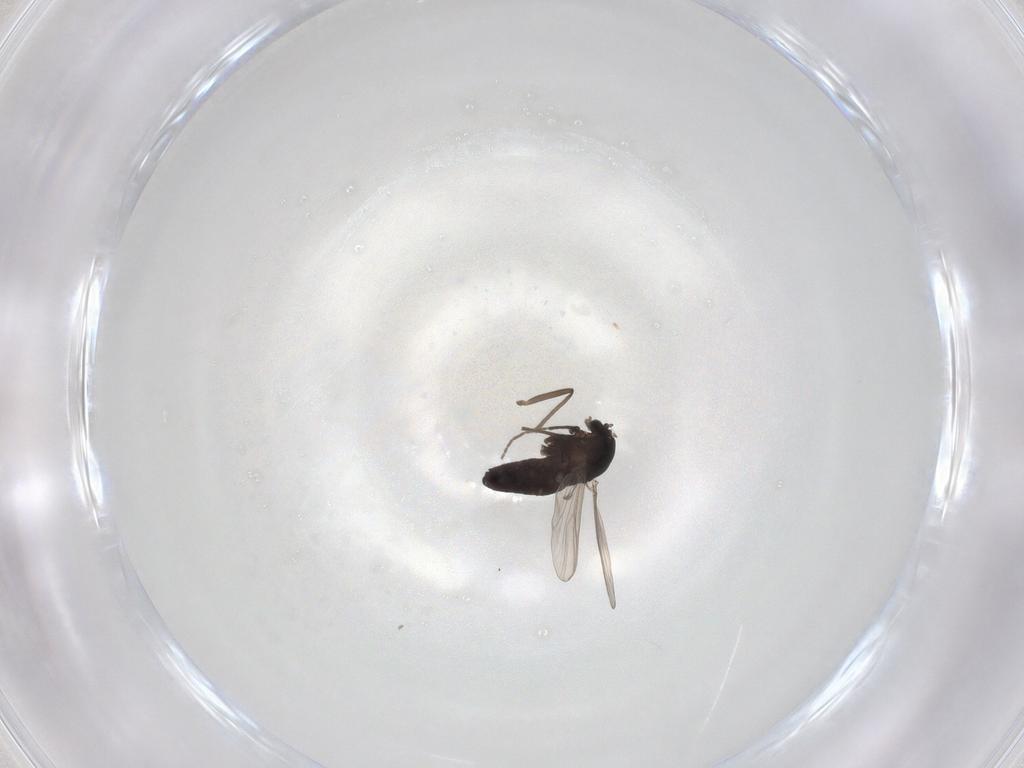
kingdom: Animalia
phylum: Arthropoda
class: Insecta
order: Diptera
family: Chironomidae
